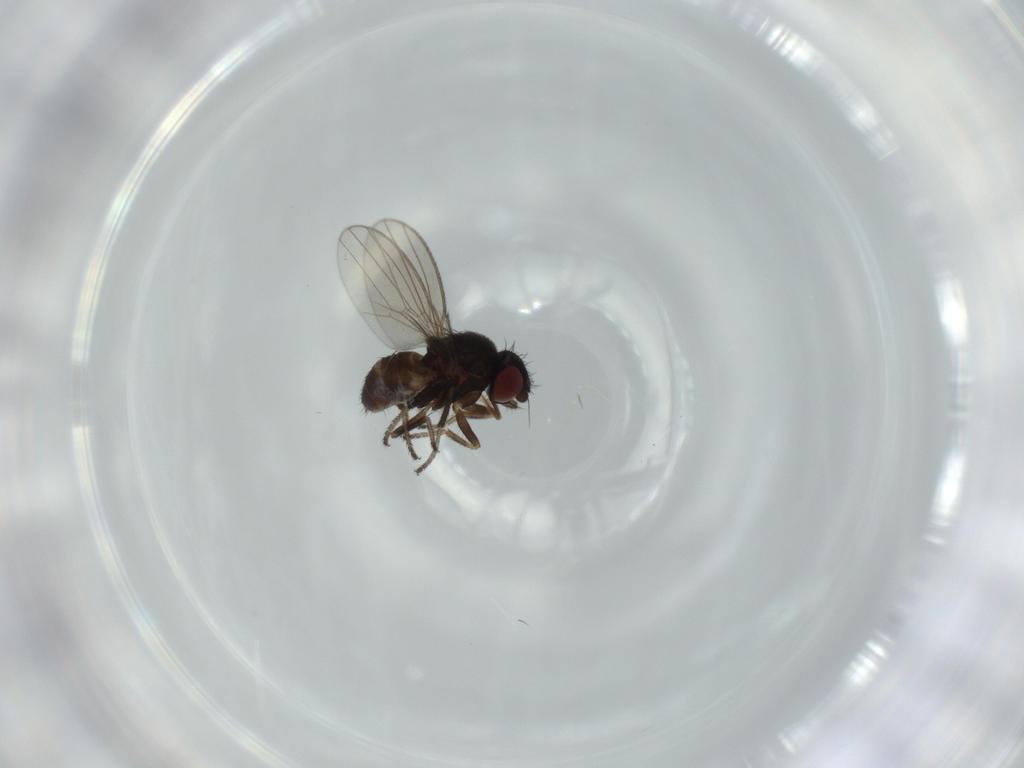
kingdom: Animalia
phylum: Arthropoda
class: Insecta
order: Diptera
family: Milichiidae
